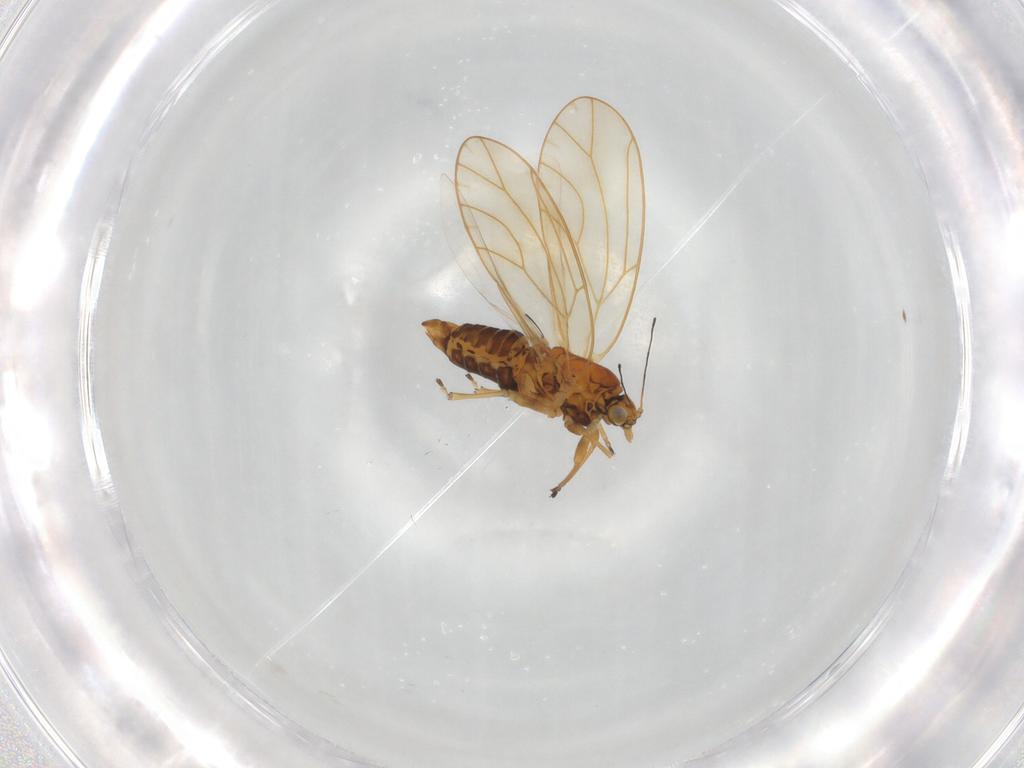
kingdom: Animalia
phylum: Arthropoda
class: Insecta
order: Hemiptera
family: Triozidae
